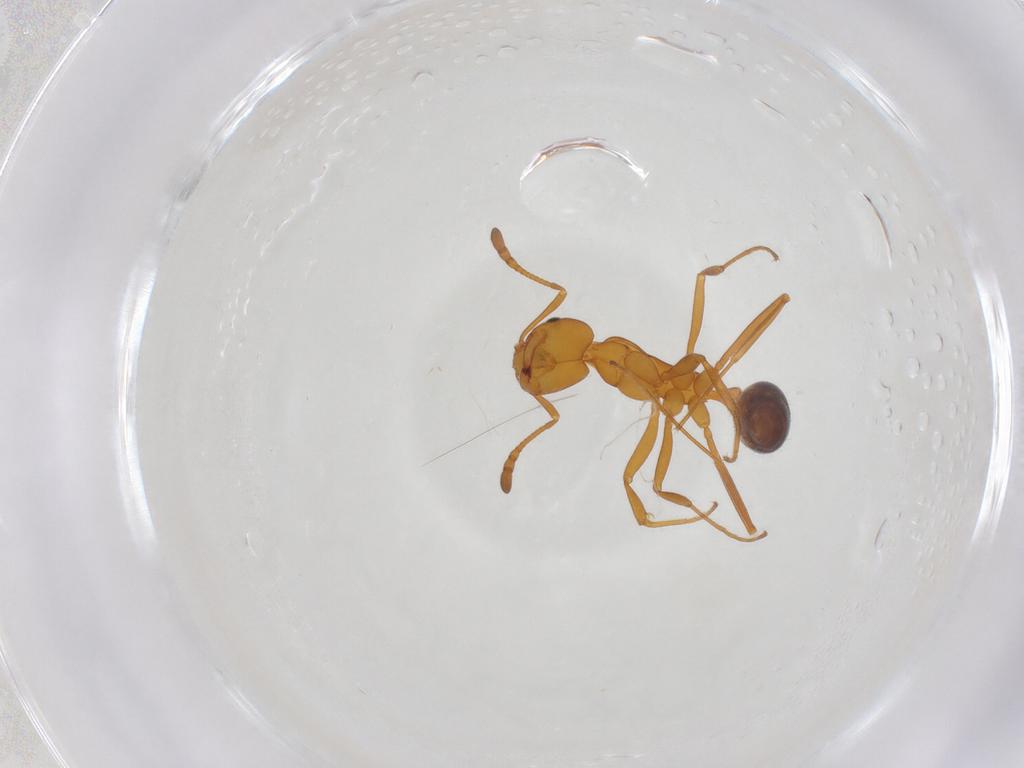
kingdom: Animalia
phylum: Arthropoda
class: Insecta
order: Hymenoptera
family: Formicidae
